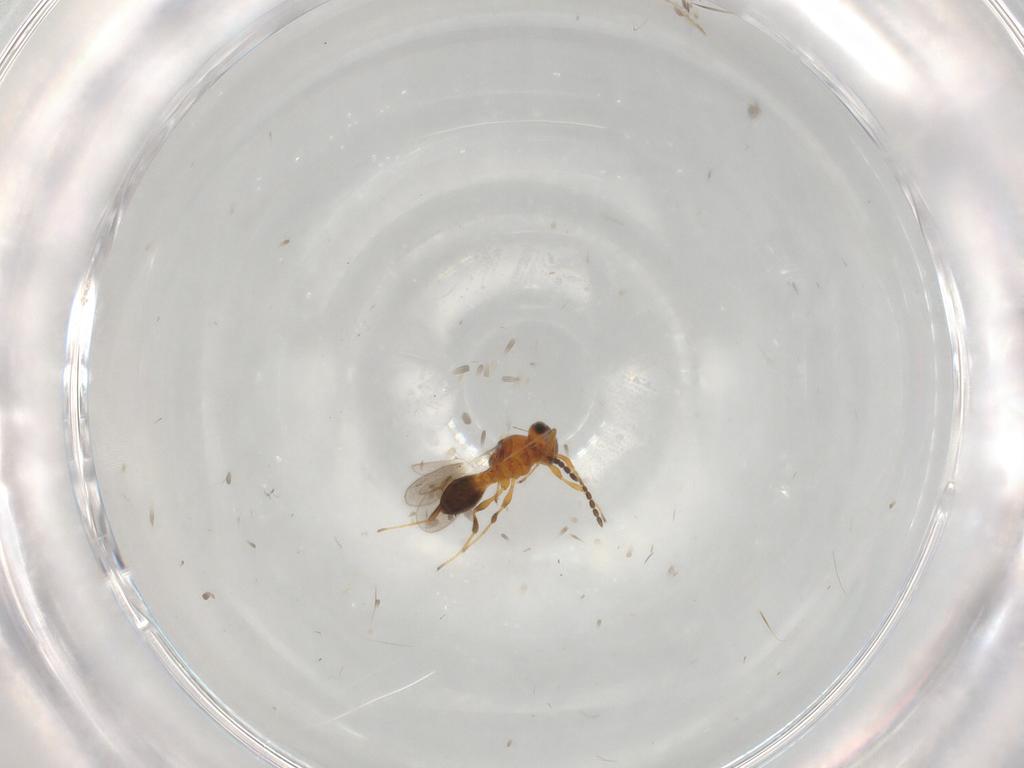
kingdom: Animalia
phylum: Arthropoda
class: Insecta
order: Hymenoptera
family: Platygastridae
